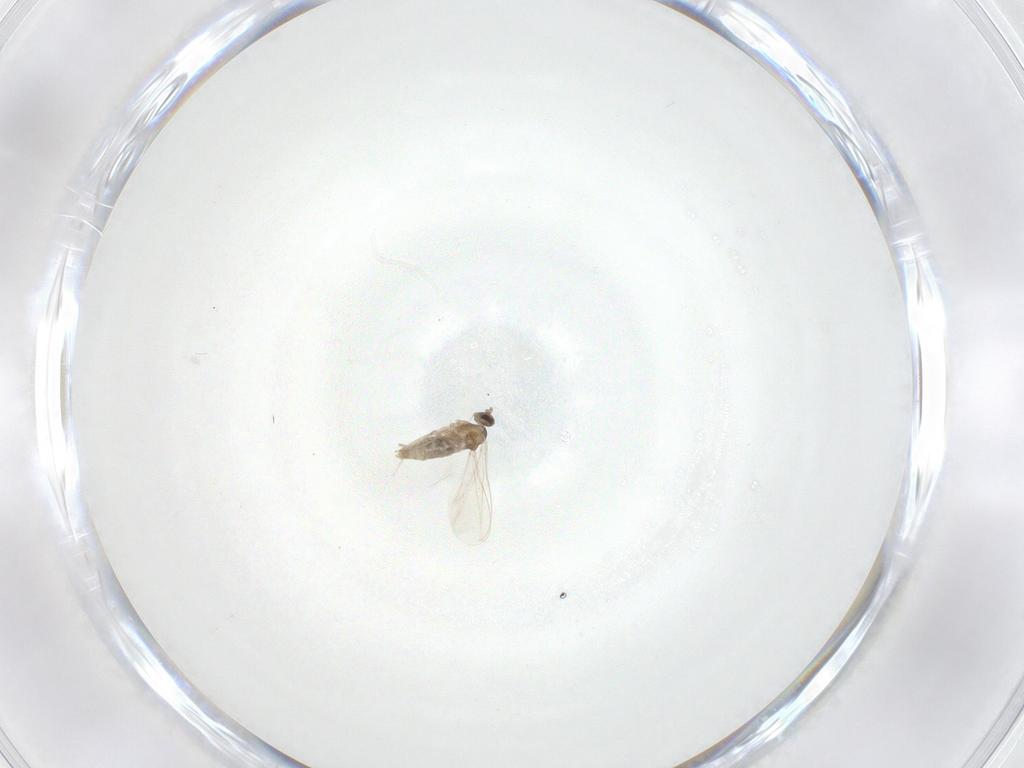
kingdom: Animalia
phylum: Arthropoda
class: Insecta
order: Diptera
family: Cecidomyiidae
